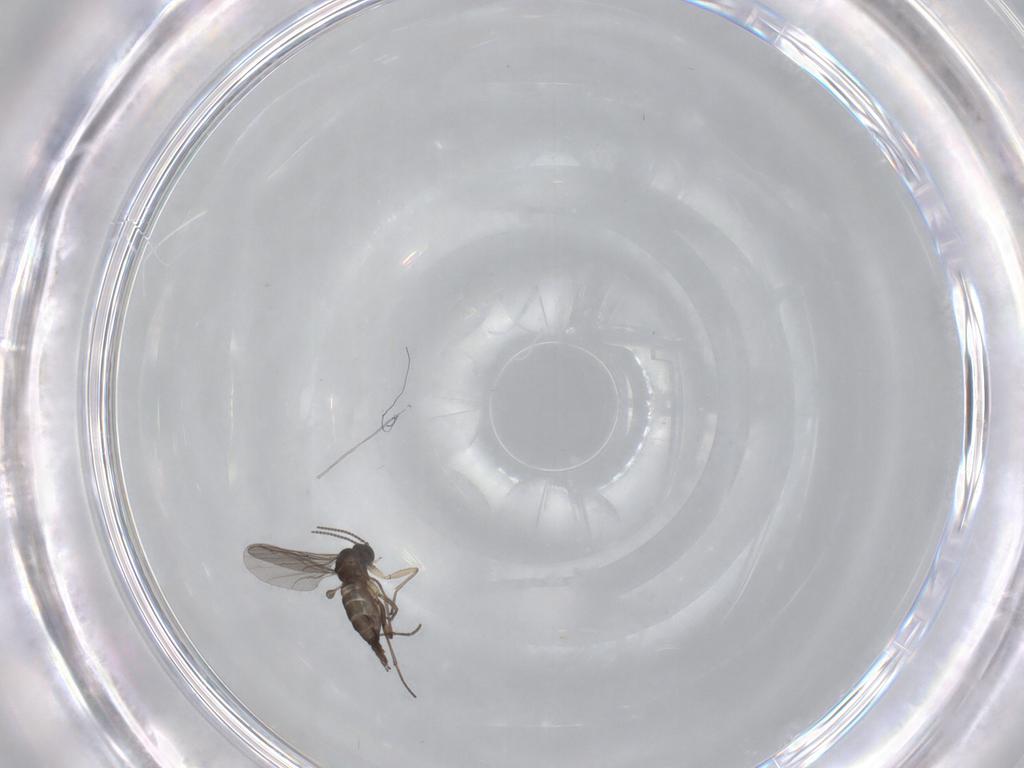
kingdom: Animalia
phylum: Arthropoda
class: Insecta
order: Diptera
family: Sciaridae
